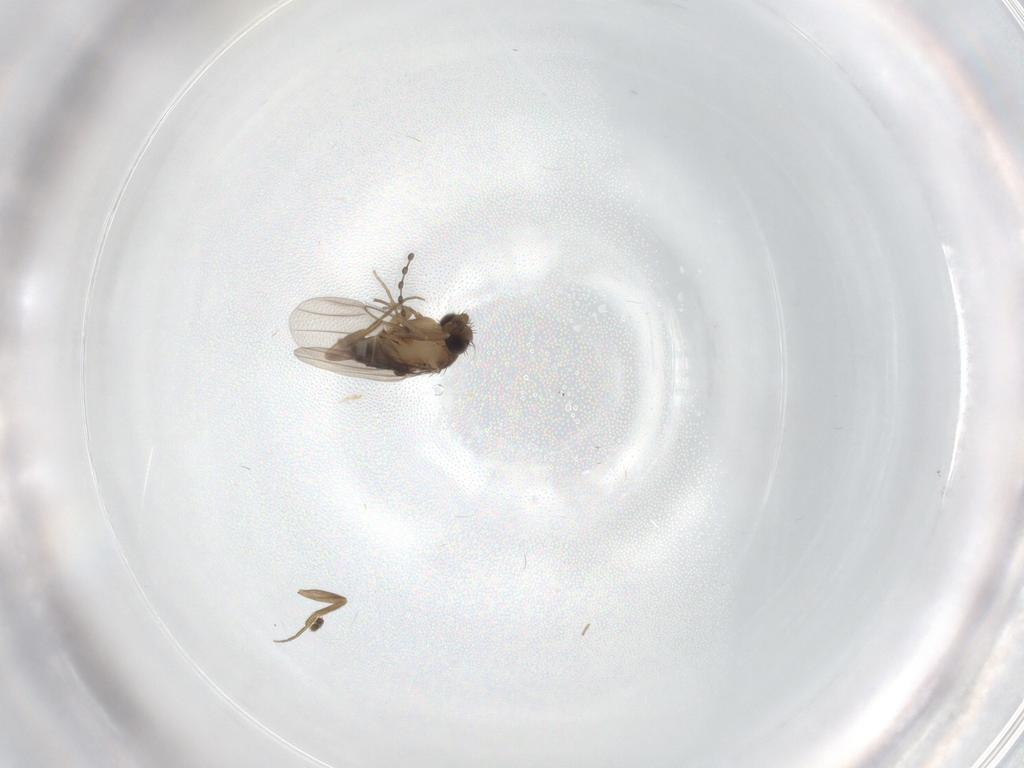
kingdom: Animalia
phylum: Arthropoda
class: Insecta
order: Diptera
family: Phoridae
